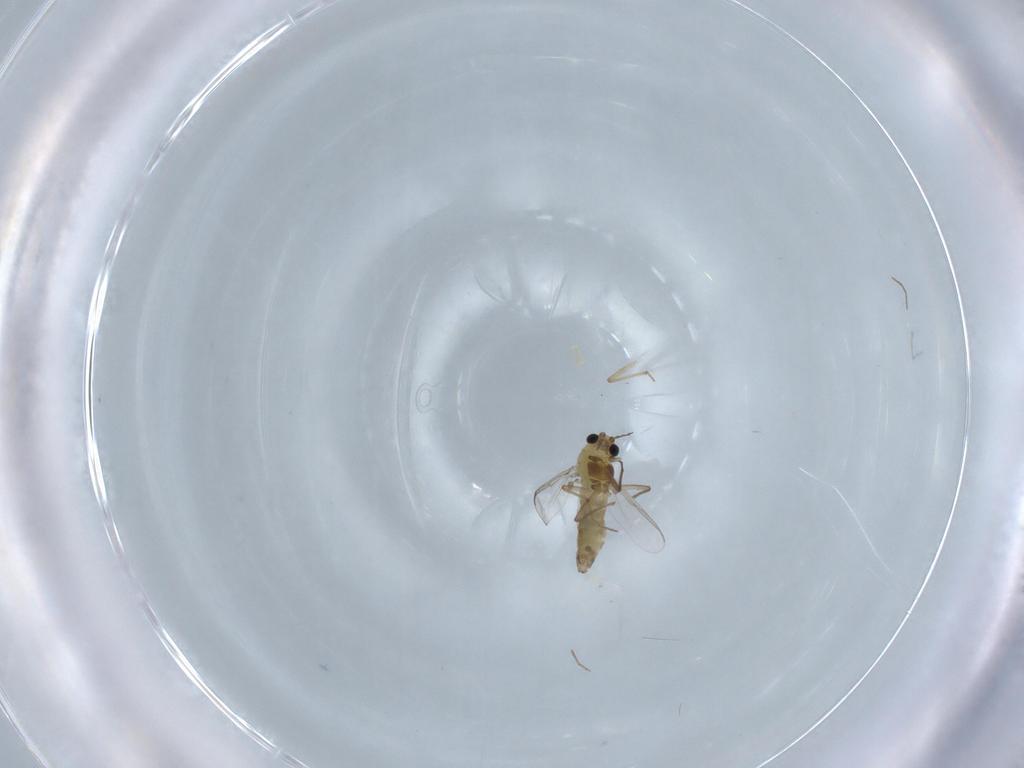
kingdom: Animalia
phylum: Arthropoda
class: Insecta
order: Diptera
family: Chironomidae
